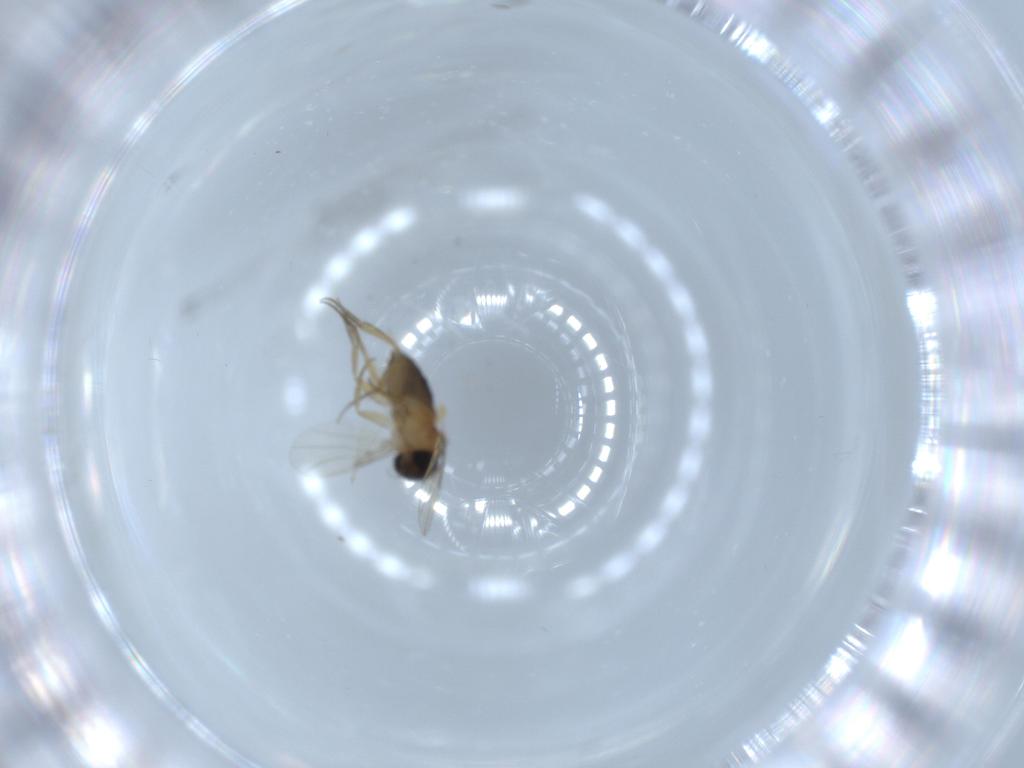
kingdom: Animalia
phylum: Arthropoda
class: Insecta
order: Diptera
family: Phoridae
